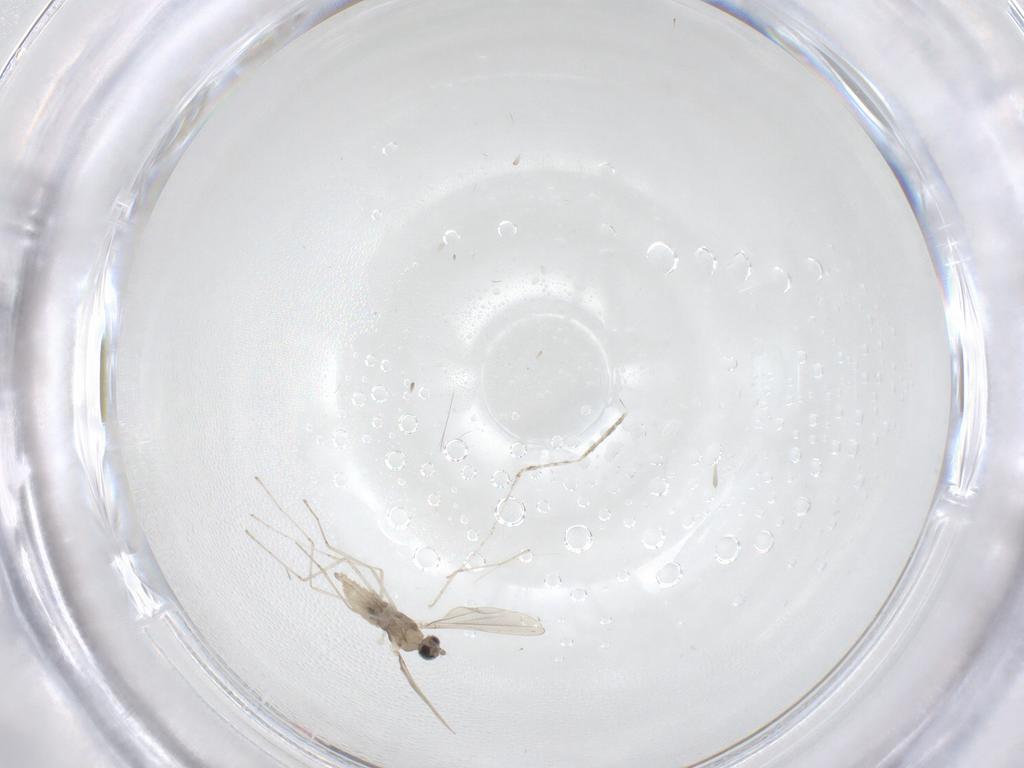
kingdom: Animalia
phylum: Arthropoda
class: Insecta
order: Diptera
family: Cecidomyiidae
